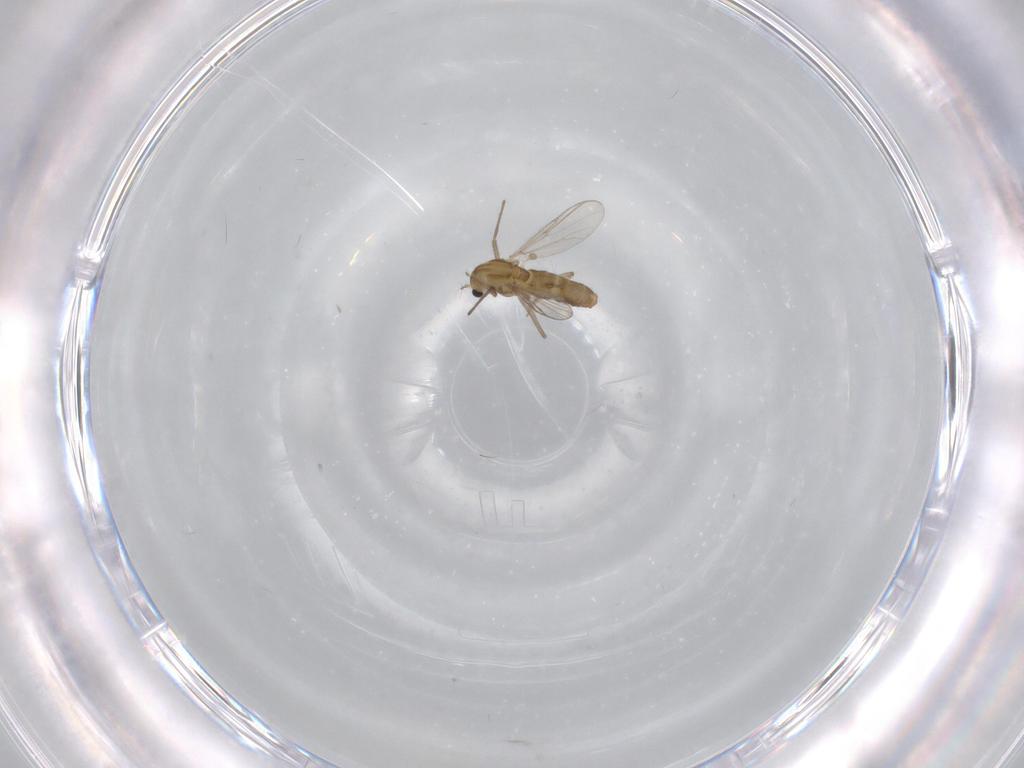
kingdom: Animalia
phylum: Arthropoda
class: Insecta
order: Diptera
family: Chironomidae
